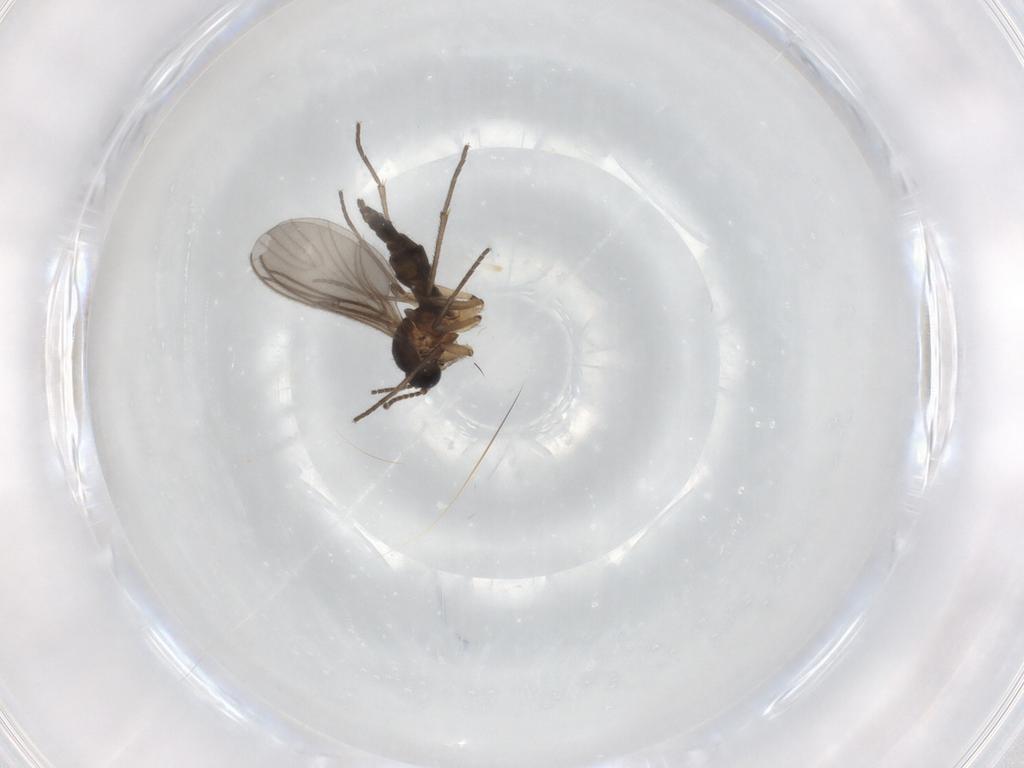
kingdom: Animalia
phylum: Arthropoda
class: Insecta
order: Diptera
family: Sciaridae
